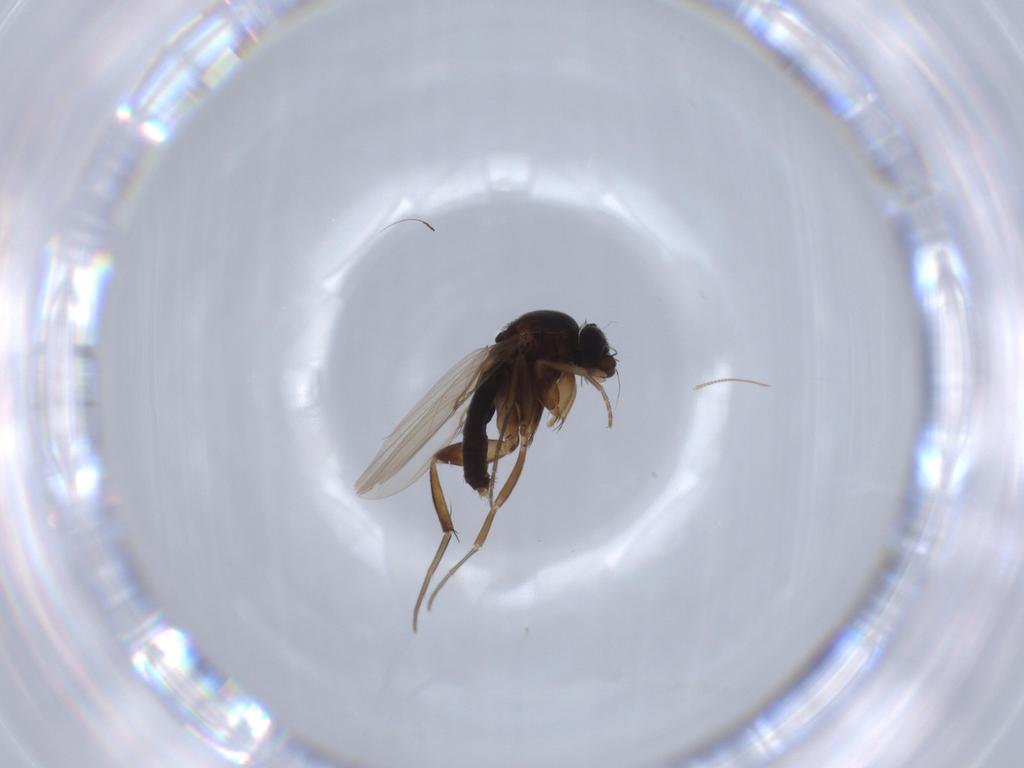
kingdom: Animalia
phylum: Arthropoda
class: Insecta
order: Diptera
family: Phoridae
